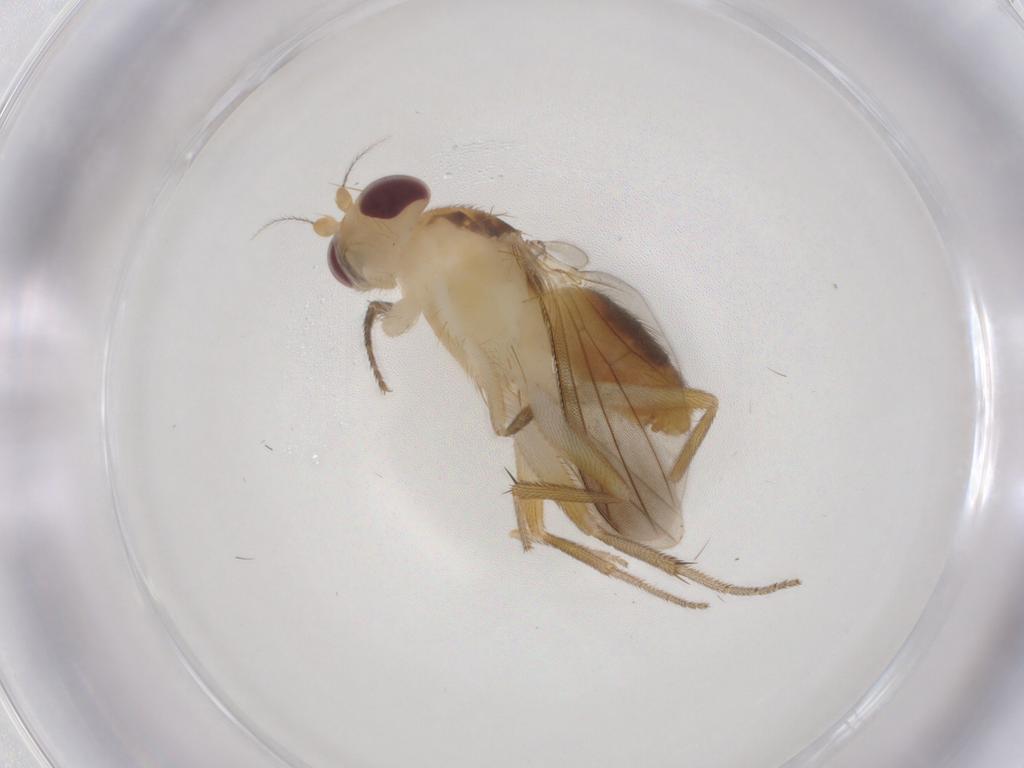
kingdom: Animalia
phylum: Arthropoda
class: Insecta
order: Diptera
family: Agromyzidae
